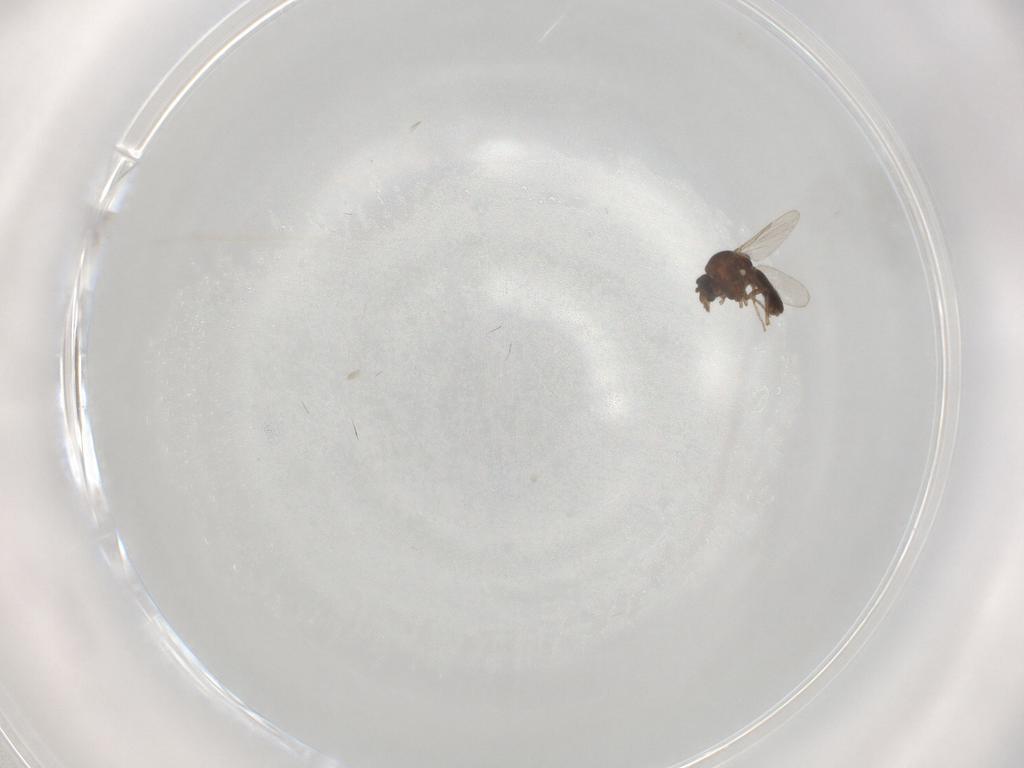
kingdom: Animalia
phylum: Arthropoda
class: Insecta
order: Diptera
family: Ceratopogonidae
